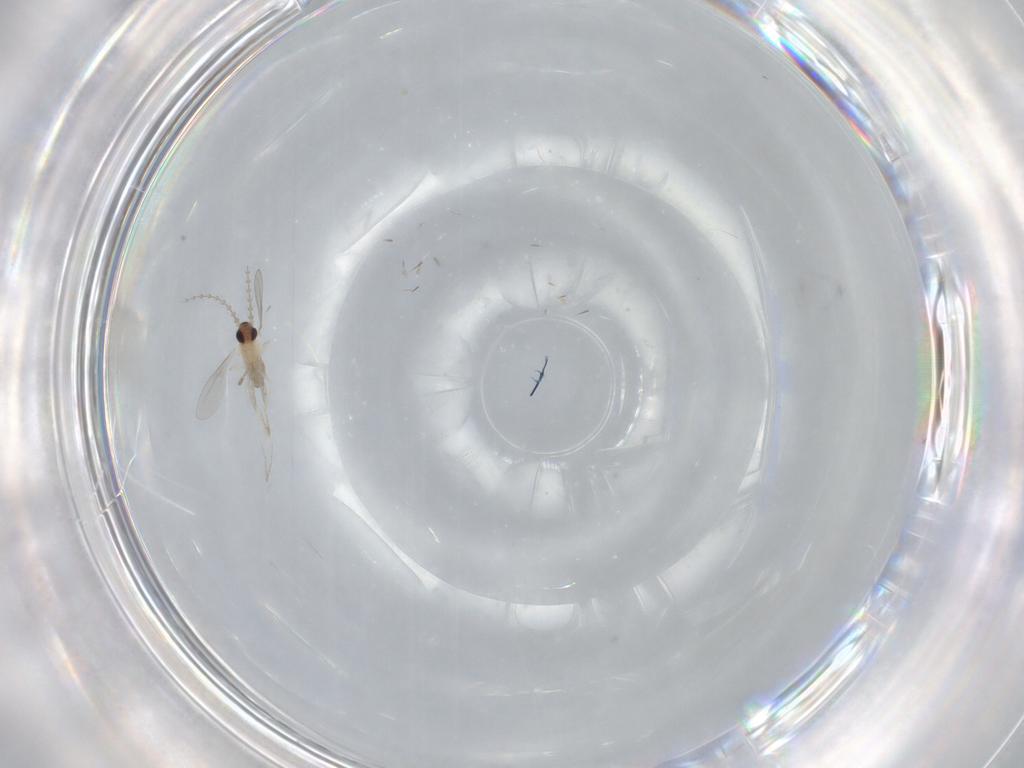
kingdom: Animalia
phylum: Arthropoda
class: Insecta
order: Diptera
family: Cecidomyiidae
